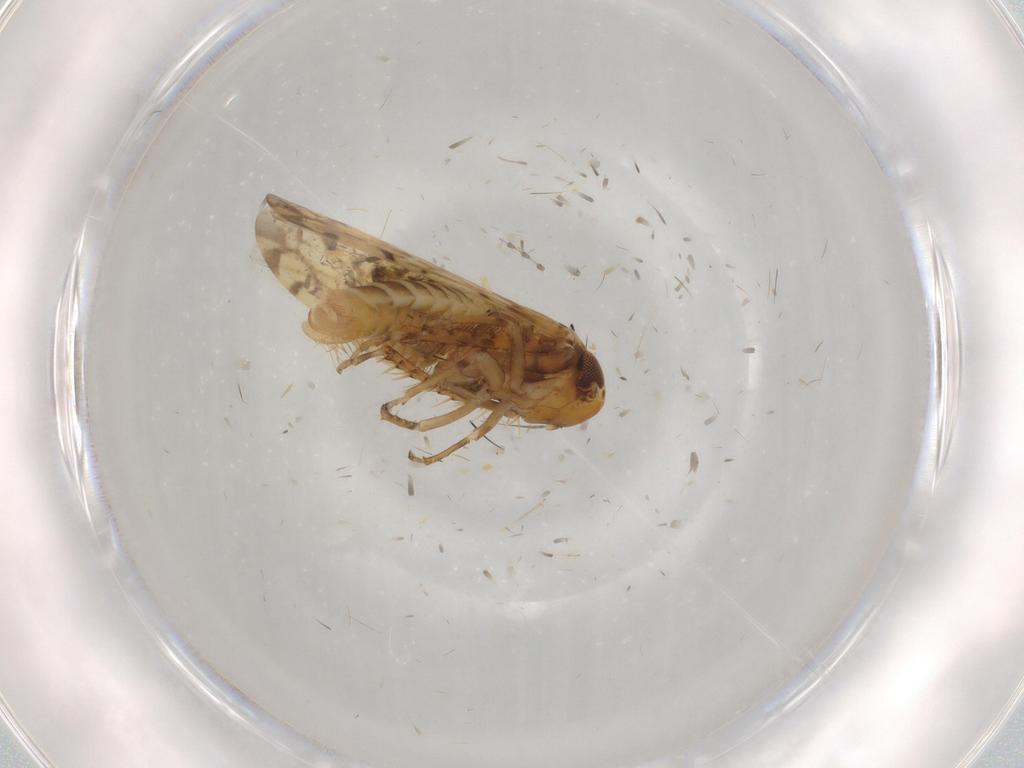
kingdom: Animalia
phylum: Arthropoda
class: Insecta
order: Hemiptera
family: Cicadellidae
